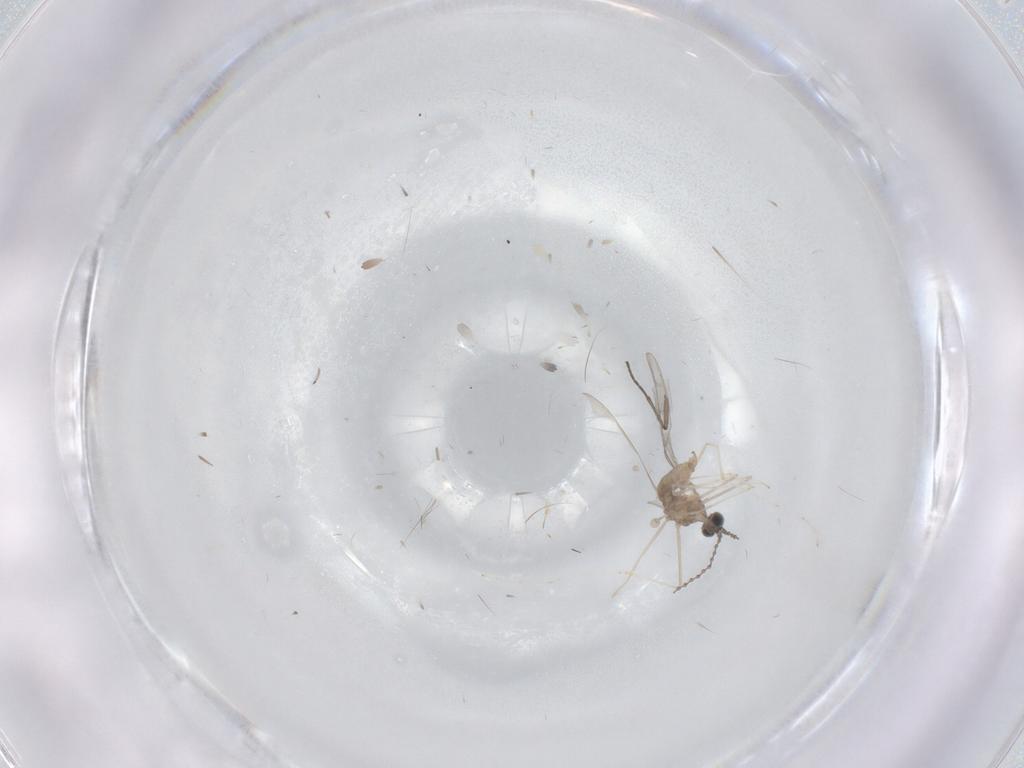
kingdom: Animalia
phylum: Arthropoda
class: Insecta
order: Diptera
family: Cecidomyiidae
